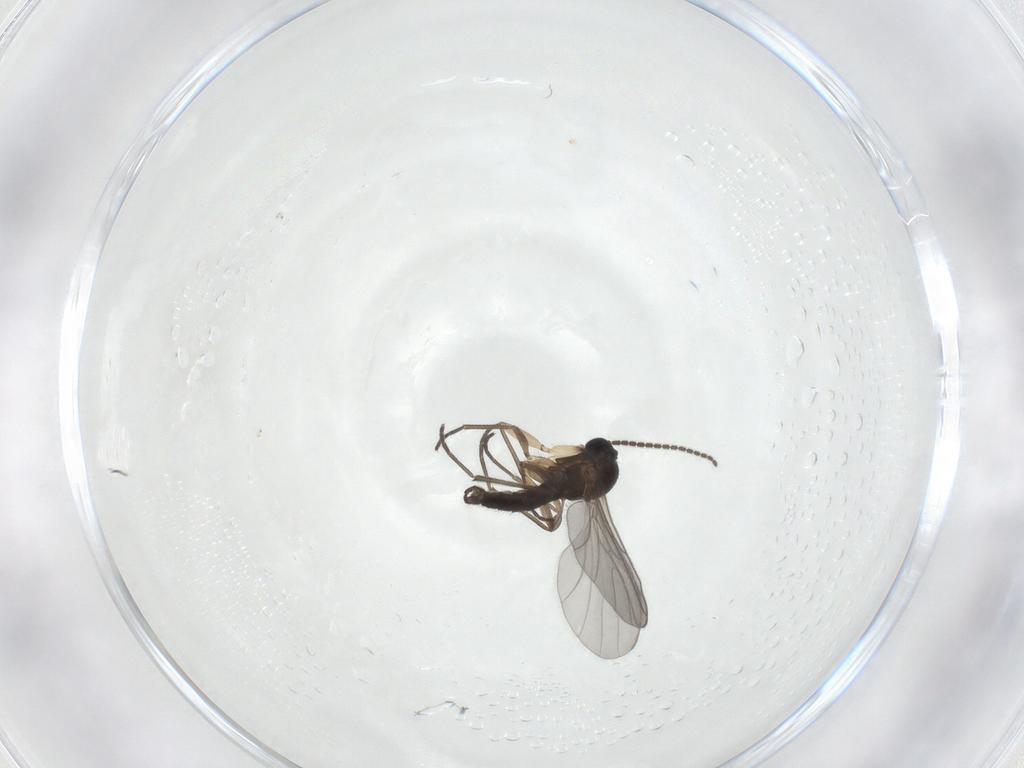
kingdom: Animalia
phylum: Arthropoda
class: Insecta
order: Diptera
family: Sciaridae
